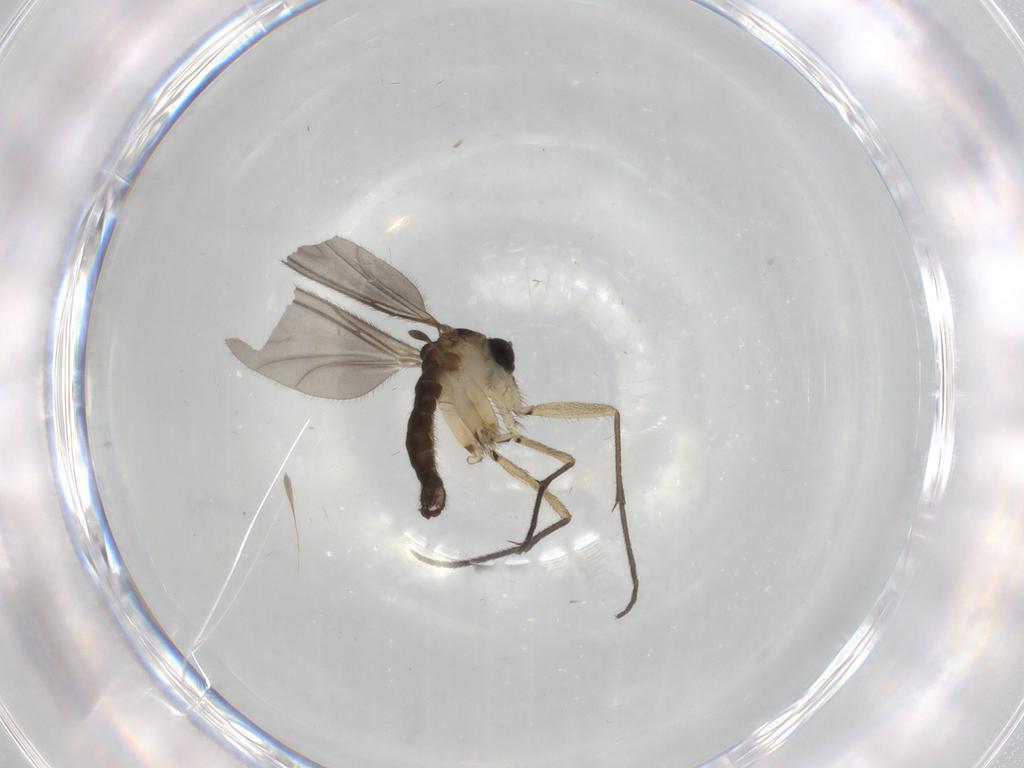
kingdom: Animalia
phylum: Arthropoda
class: Insecta
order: Diptera
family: Sciaridae
